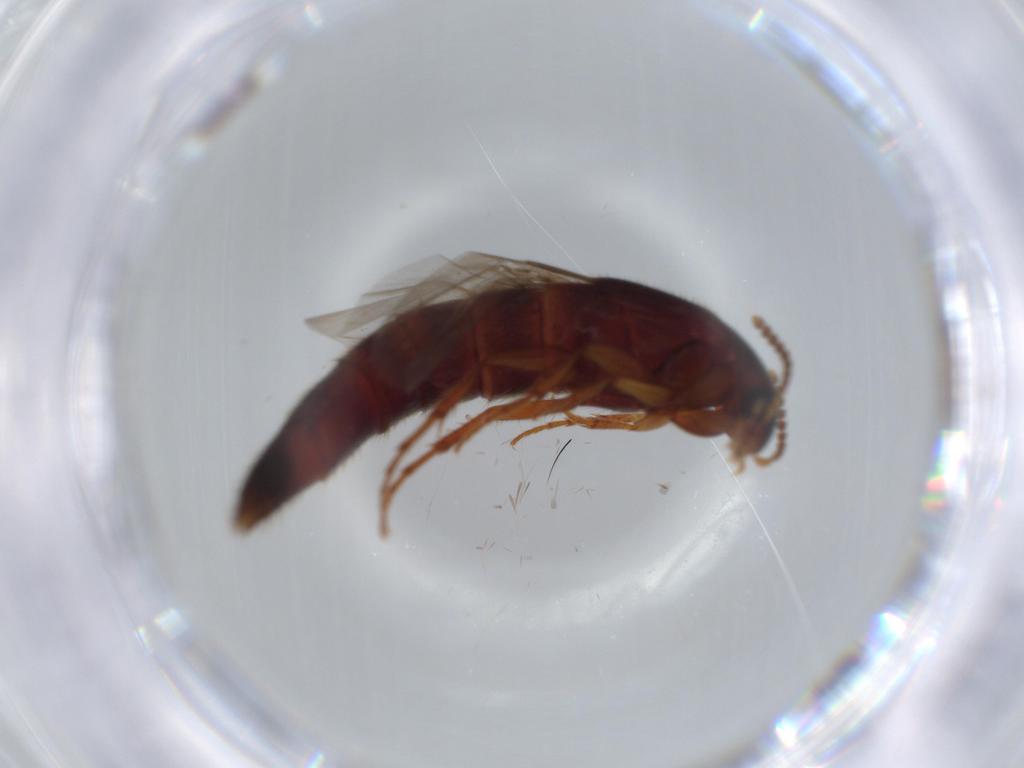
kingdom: Animalia
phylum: Arthropoda
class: Insecta
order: Coleoptera
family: Staphylinidae
